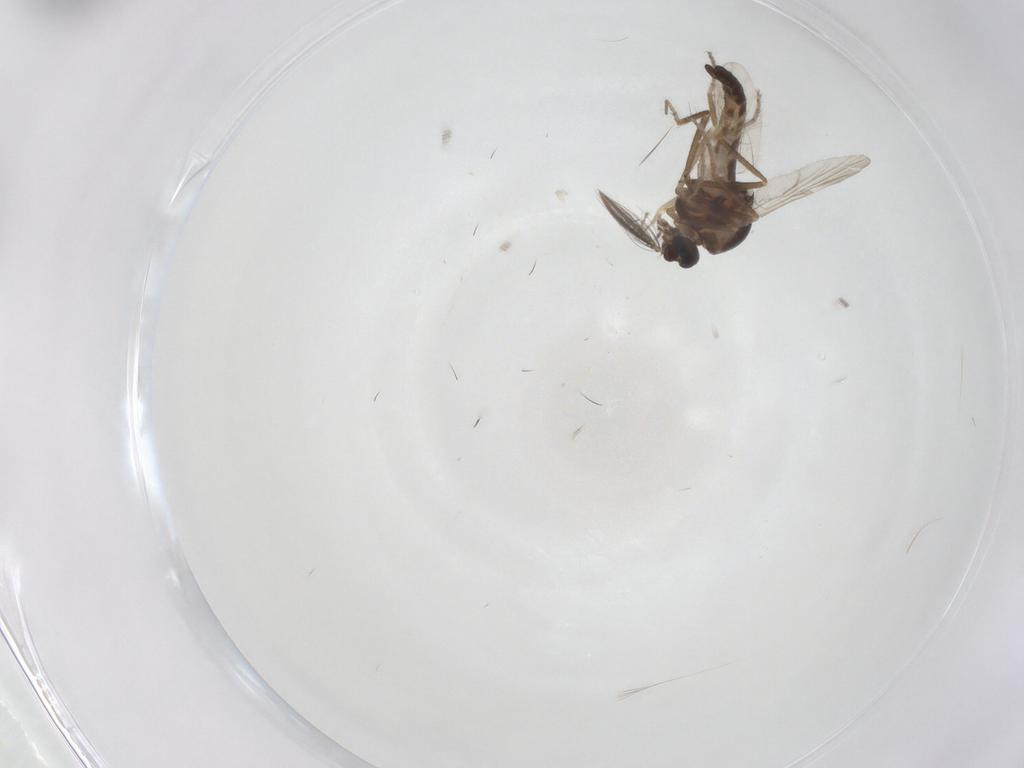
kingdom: Animalia
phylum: Arthropoda
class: Insecta
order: Diptera
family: Ceratopogonidae
